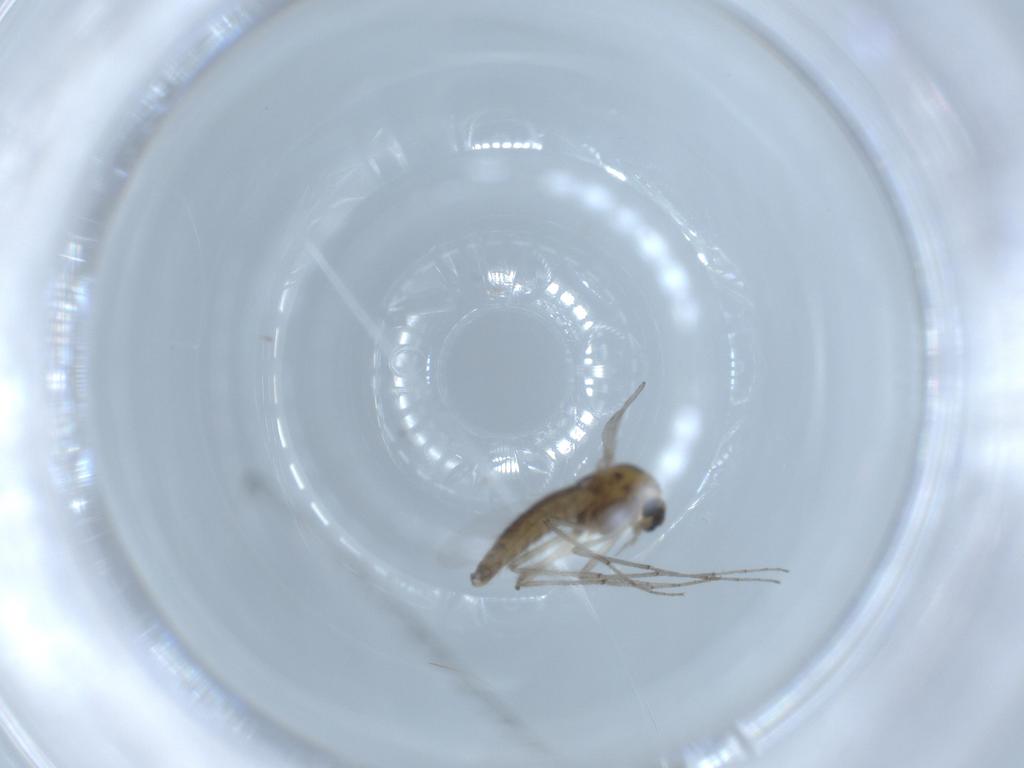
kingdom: Animalia
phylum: Arthropoda
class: Insecta
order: Diptera
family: Cecidomyiidae
